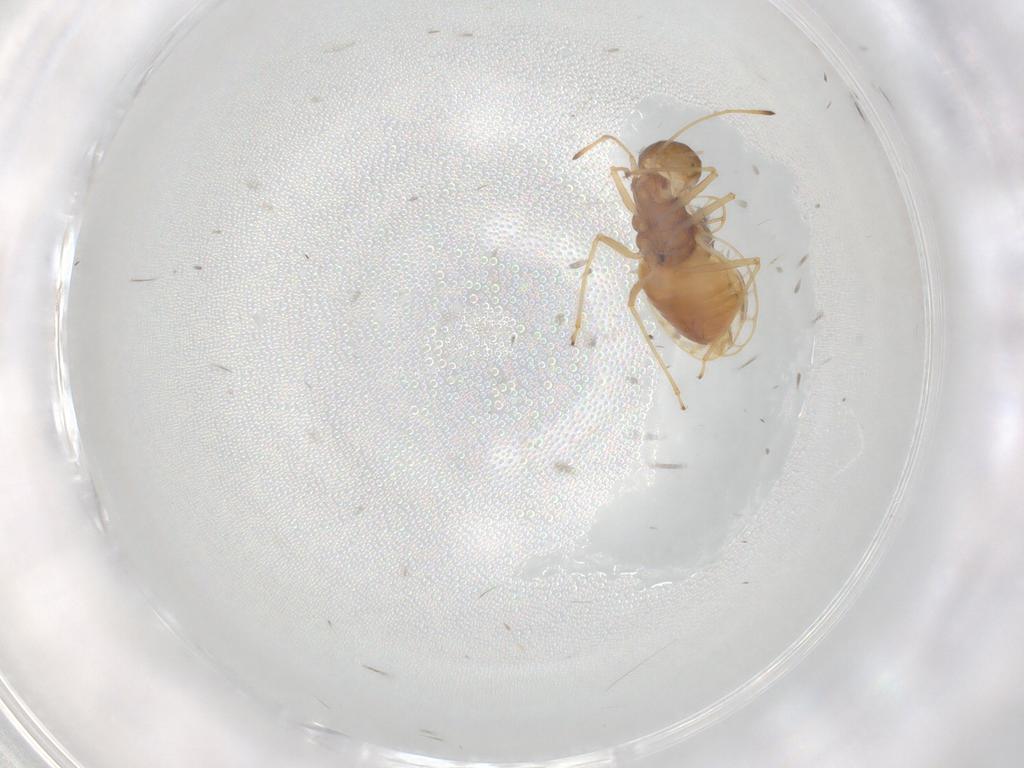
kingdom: Animalia
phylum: Arthropoda
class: Insecta
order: Hemiptera
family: Tingidae
